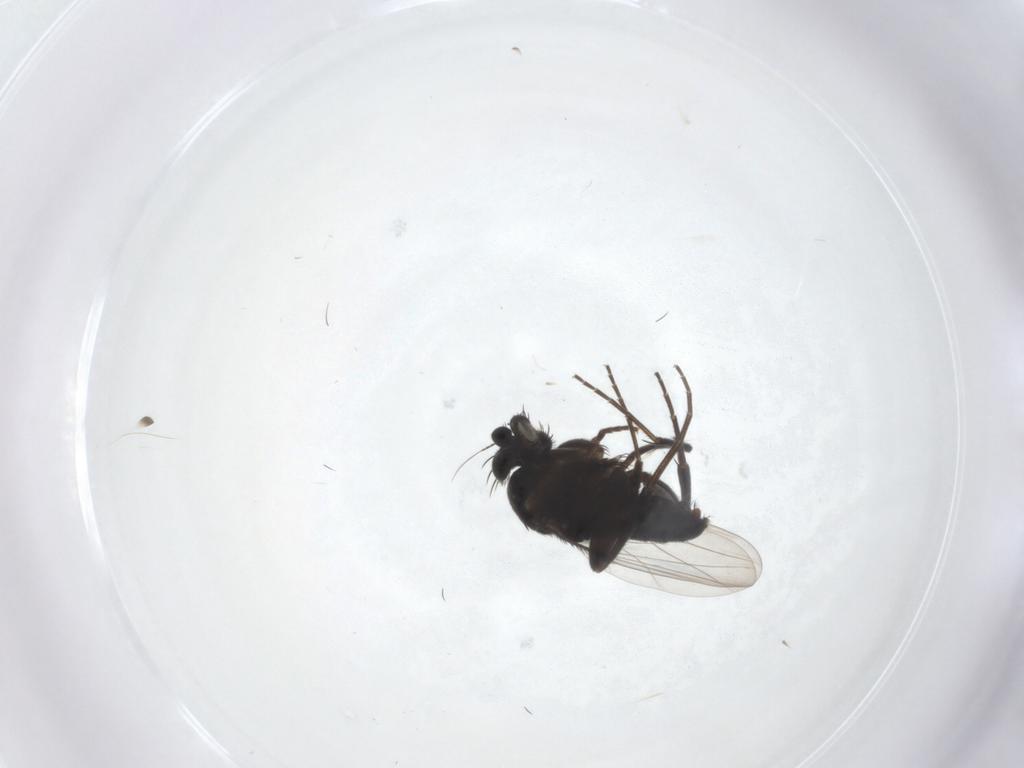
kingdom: Animalia
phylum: Arthropoda
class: Insecta
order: Diptera
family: Phoridae
